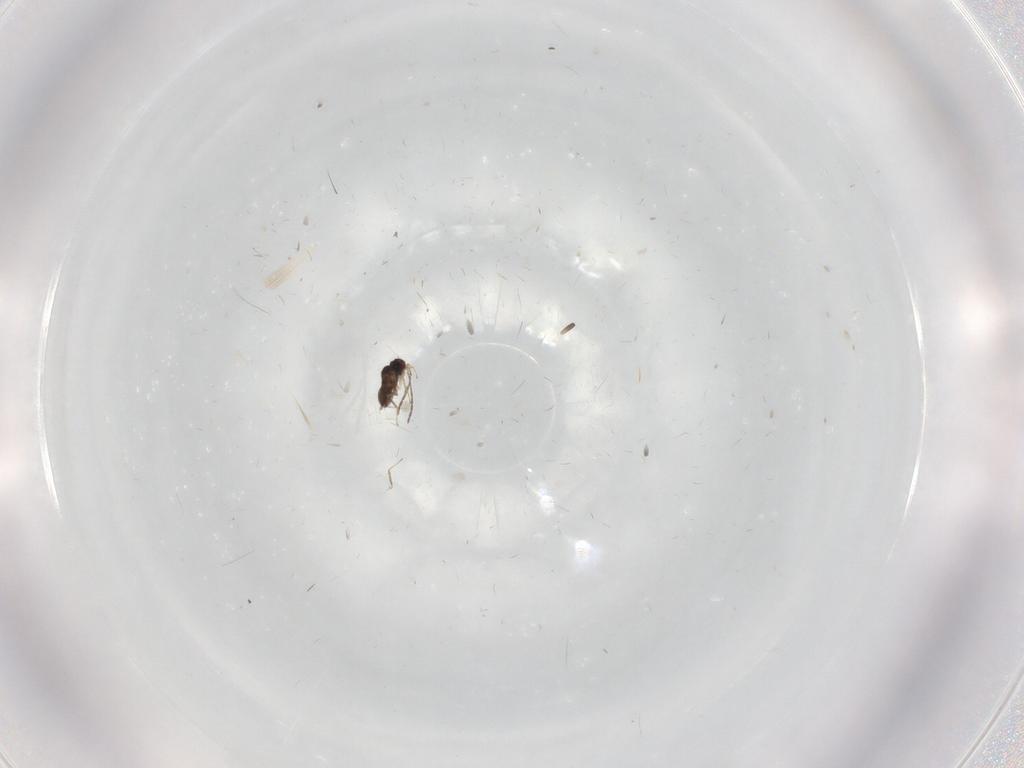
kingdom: Animalia
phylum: Arthropoda
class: Insecta
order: Hymenoptera
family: Mymaridae
